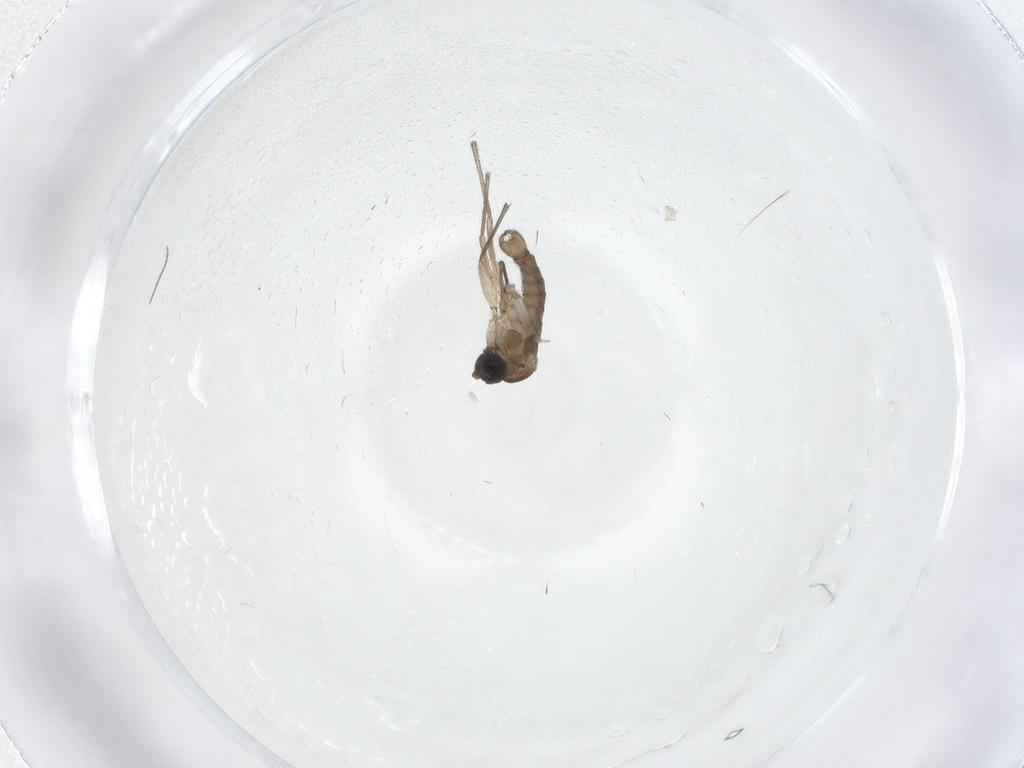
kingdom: Animalia
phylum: Arthropoda
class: Insecta
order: Diptera
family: Sciaridae
